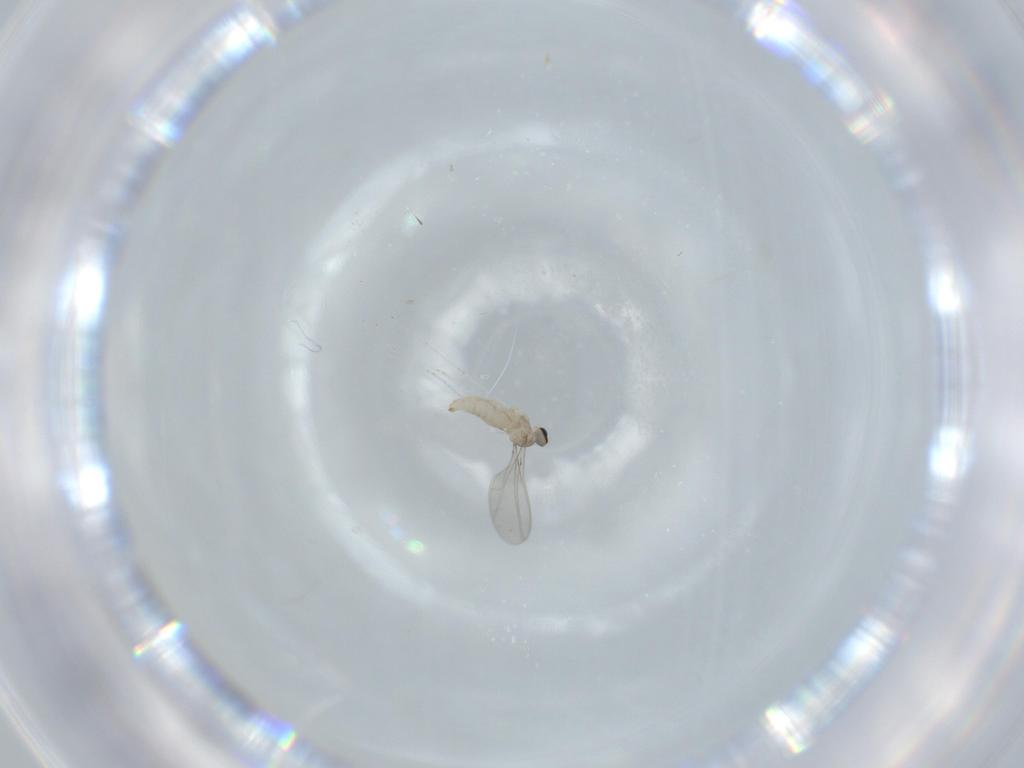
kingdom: Animalia
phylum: Arthropoda
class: Insecta
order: Diptera
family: Cecidomyiidae
